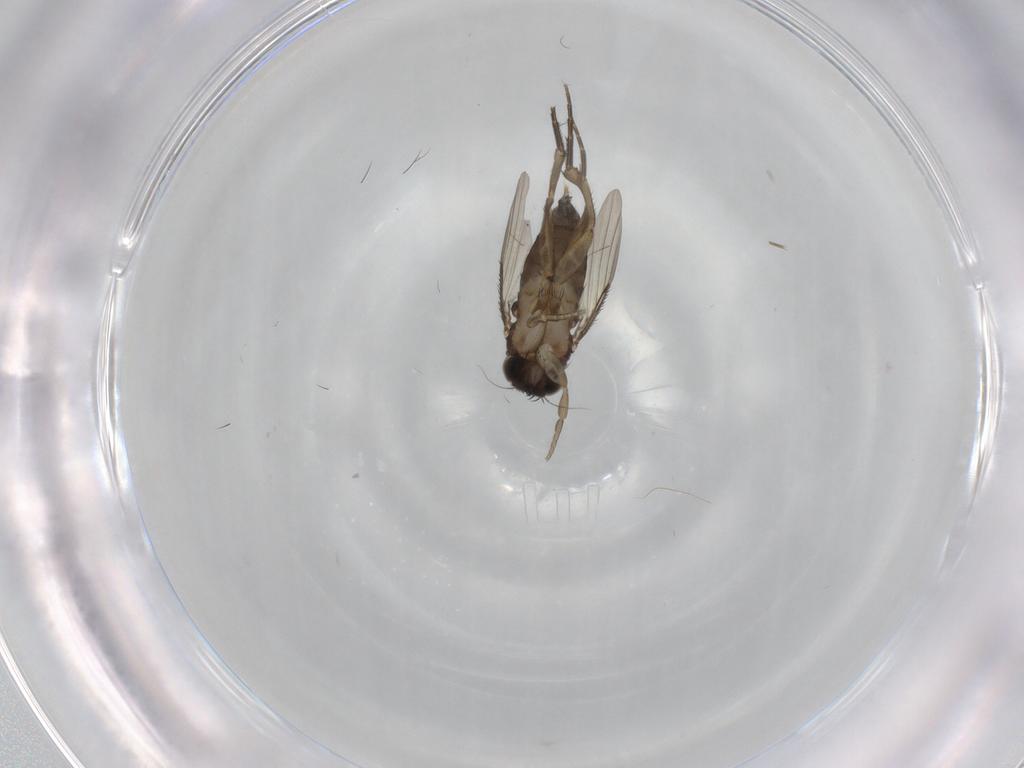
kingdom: Animalia
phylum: Arthropoda
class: Insecta
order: Diptera
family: Phoridae
